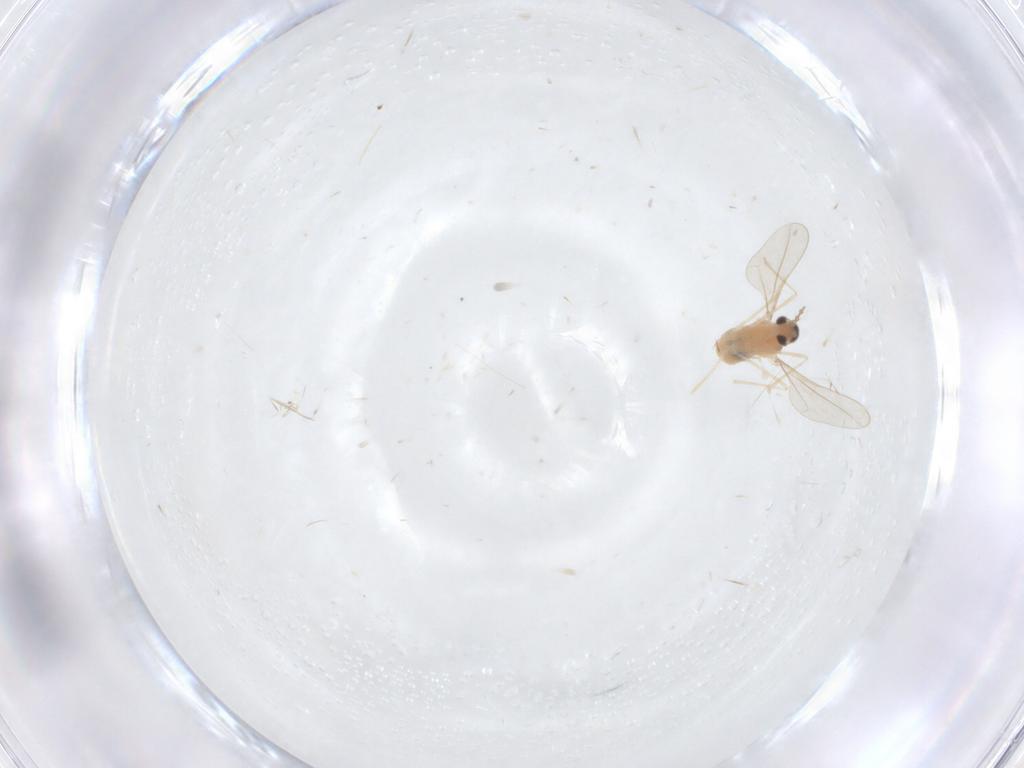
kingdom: Animalia
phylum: Arthropoda
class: Insecta
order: Diptera
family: Cecidomyiidae
